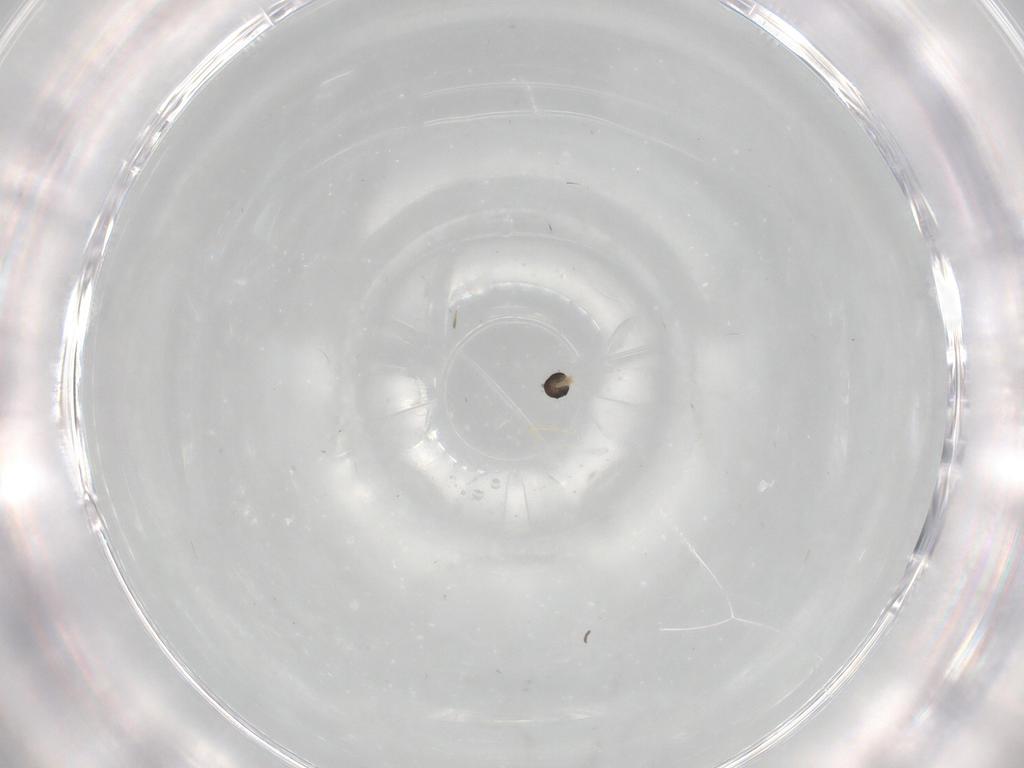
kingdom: Animalia
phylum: Arthropoda
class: Insecta
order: Diptera
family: Cecidomyiidae
